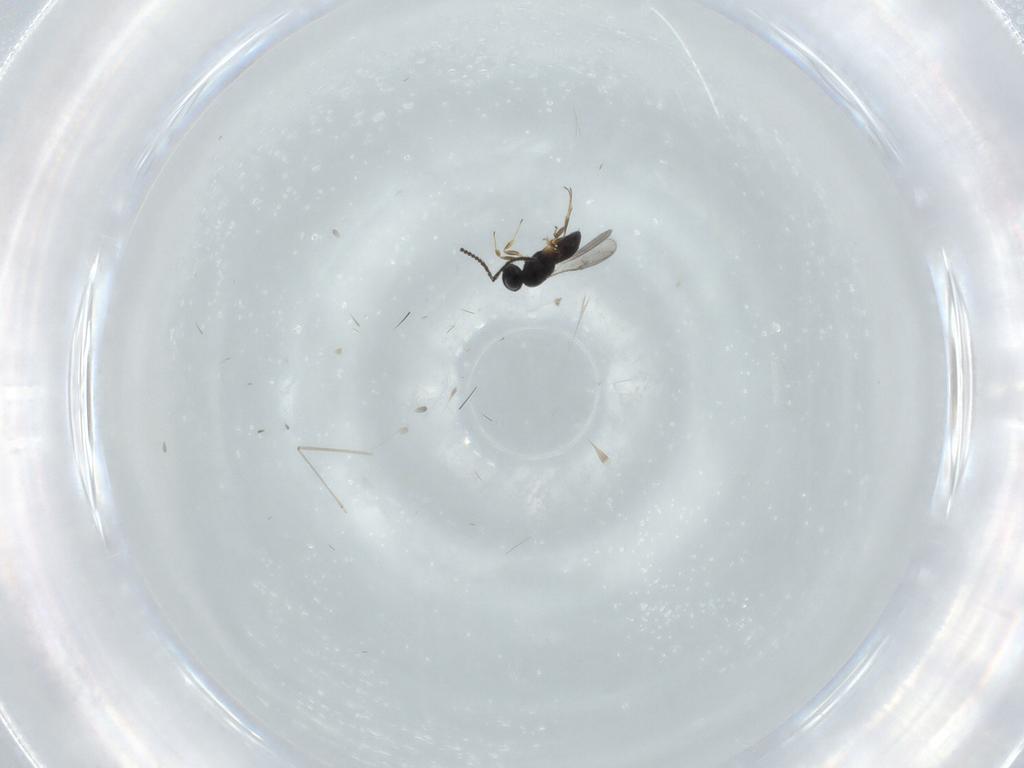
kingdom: Animalia
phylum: Arthropoda
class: Insecta
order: Hymenoptera
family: Scelionidae
